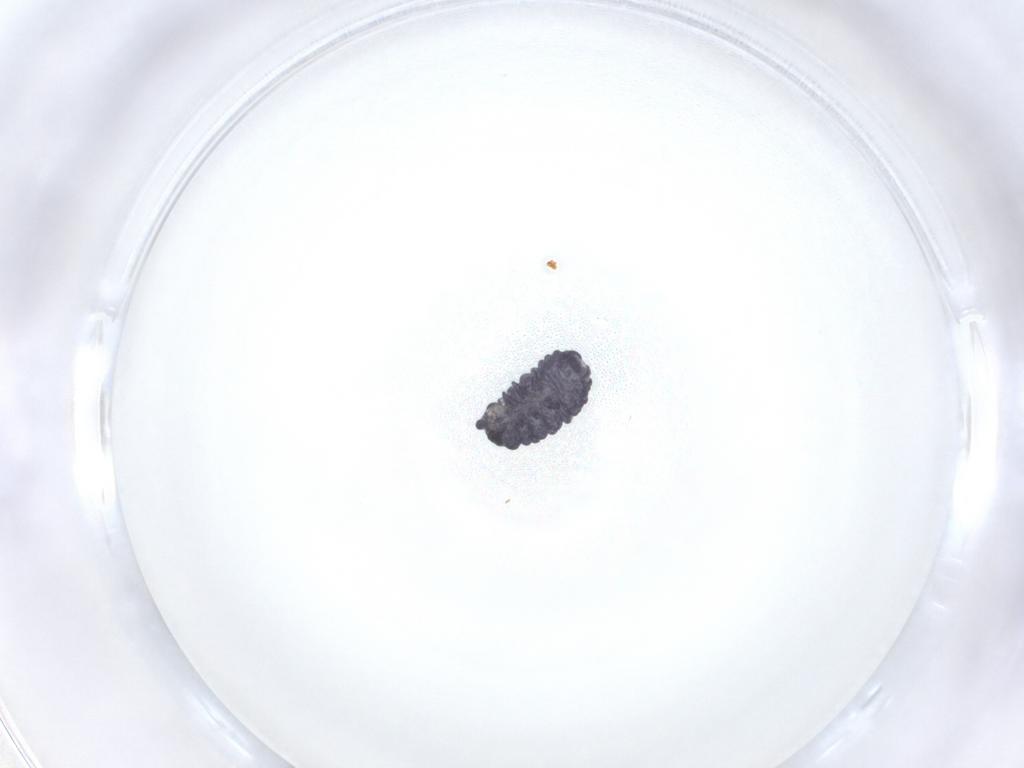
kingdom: Animalia
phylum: Arthropoda
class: Collembola
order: Poduromorpha
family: Neanuridae
